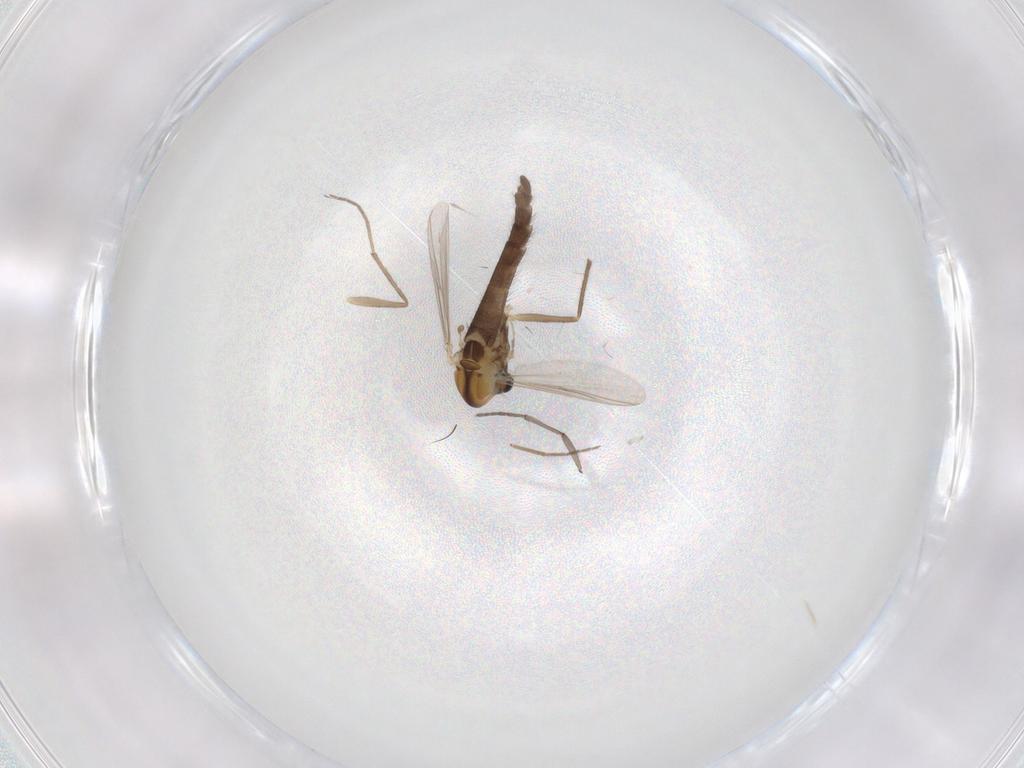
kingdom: Animalia
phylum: Arthropoda
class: Insecta
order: Diptera
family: Chironomidae
